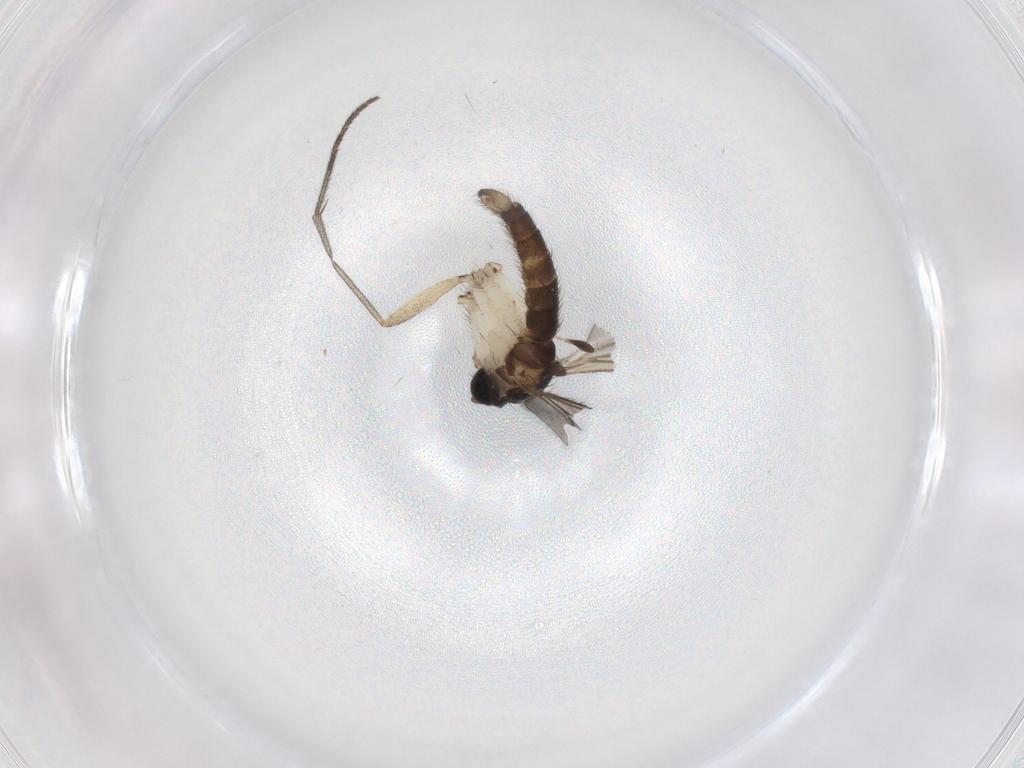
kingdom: Animalia
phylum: Arthropoda
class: Insecta
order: Diptera
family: Sciaridae
